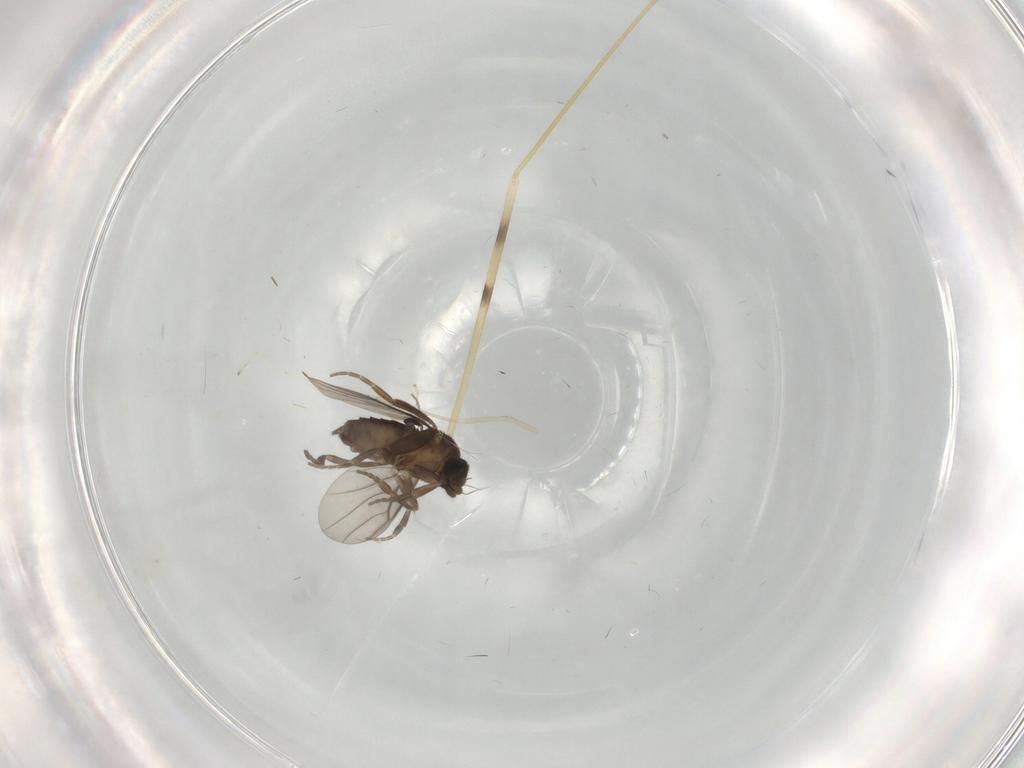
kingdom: Animalia
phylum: Arthropoda
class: Insecta
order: Diptera
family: Phoridae
